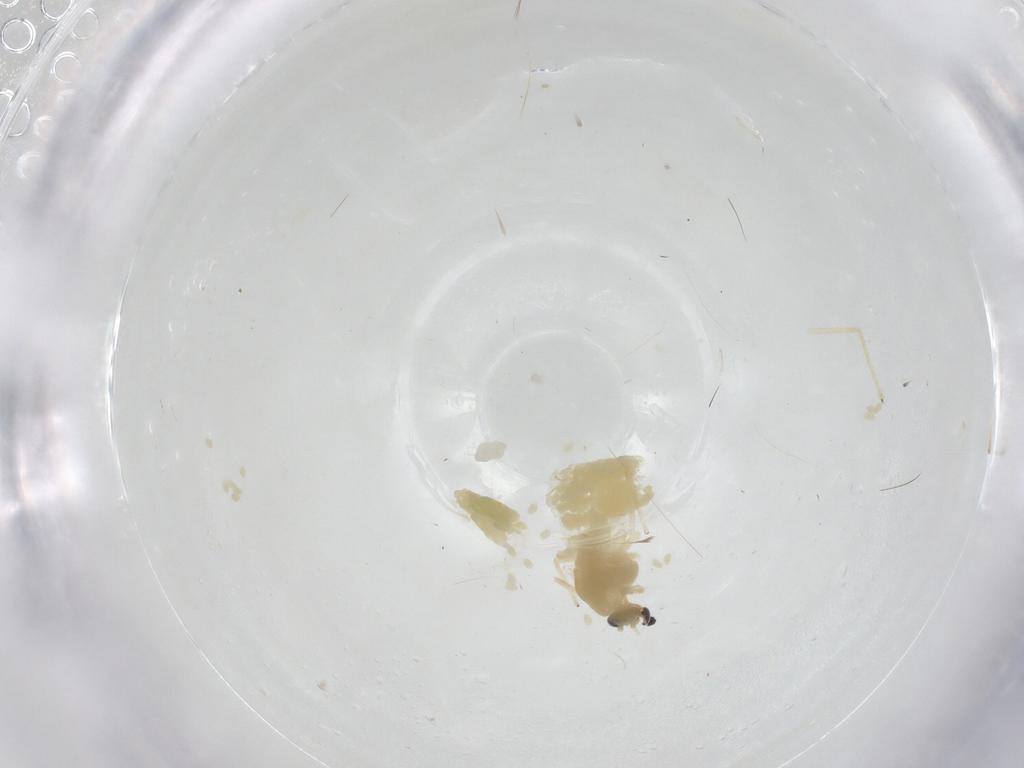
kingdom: Animalia
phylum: Arthropoda
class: Insecta
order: Diptera
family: Chironomidae
